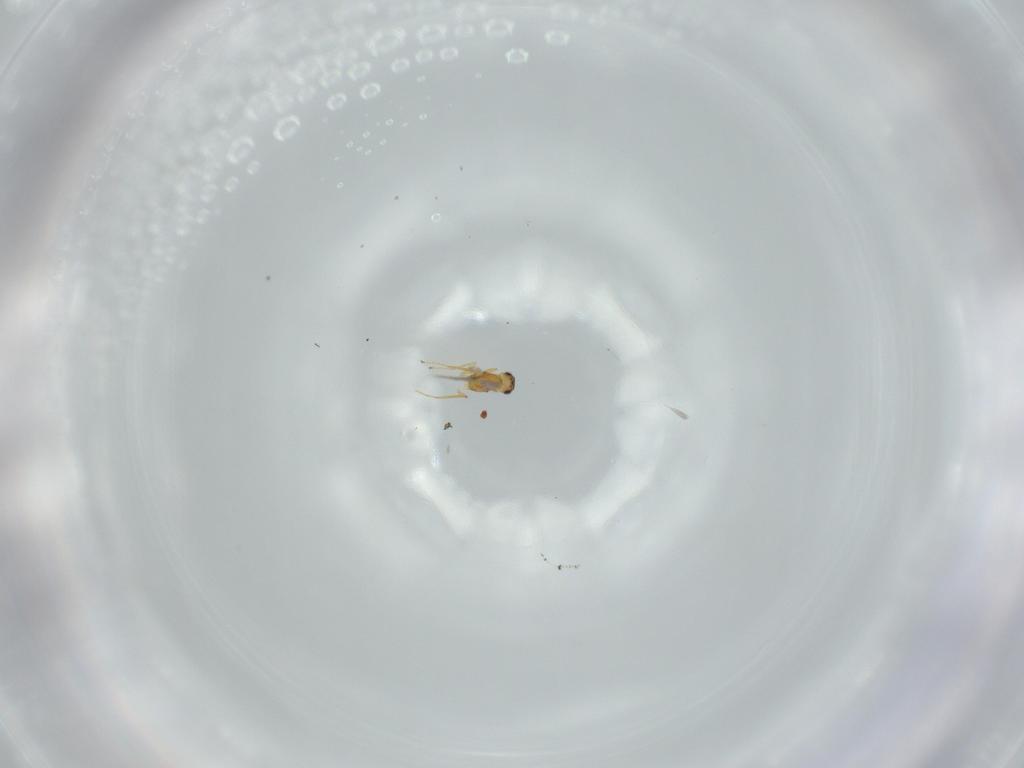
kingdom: Animalia
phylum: Arthropoda
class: Insecta
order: Hymenoptera
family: Mymaridae
